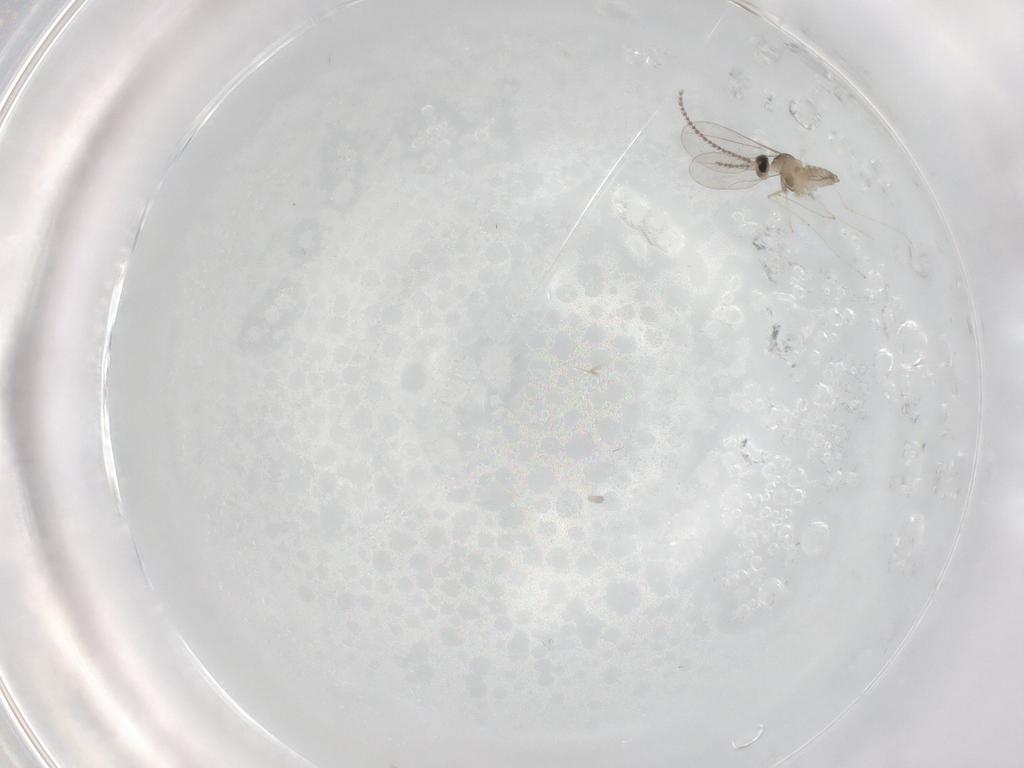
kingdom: Animalia
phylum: Arthropoda
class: Insecta
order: Diptera
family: Cecidomyiidae
